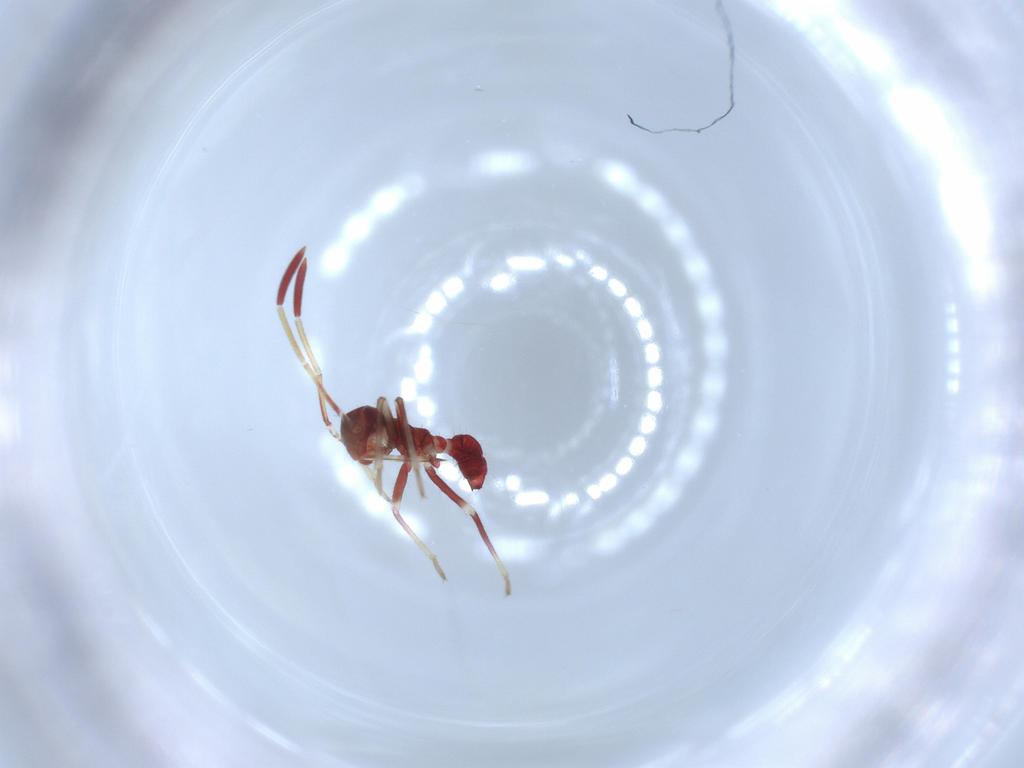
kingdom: Animalia
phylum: Arthropoda
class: Insecta
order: Hemiptera
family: Miridae
